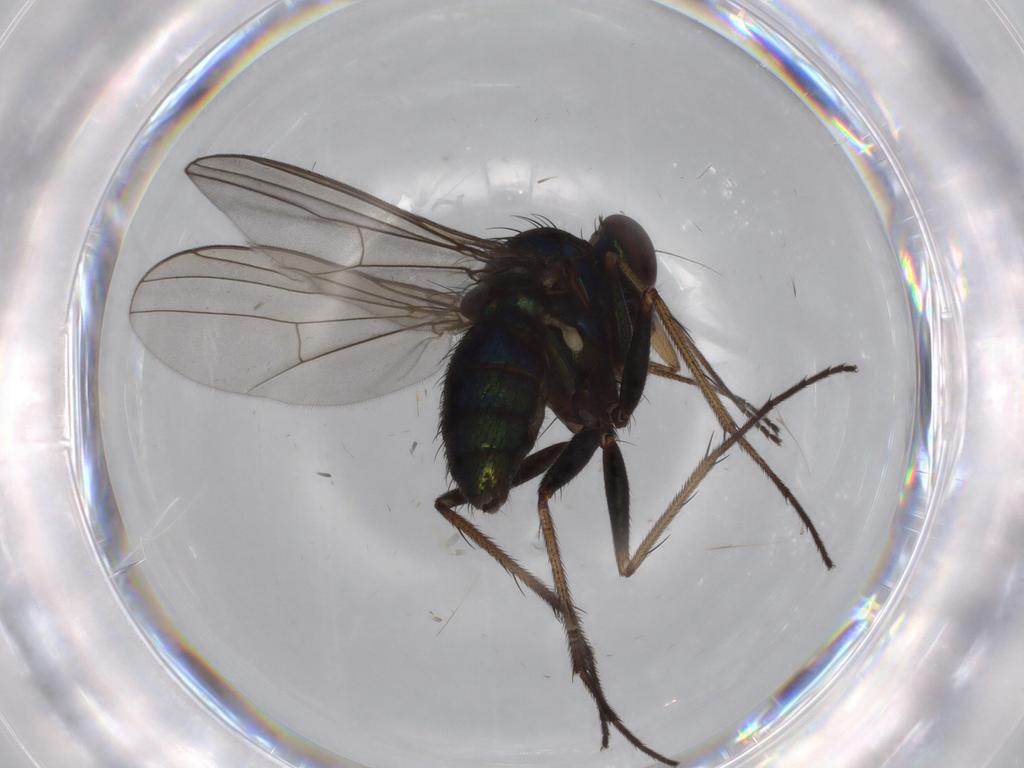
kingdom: Animalia
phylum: Arthropoda
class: Insecta
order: Diptera
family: Dolichopodidae
